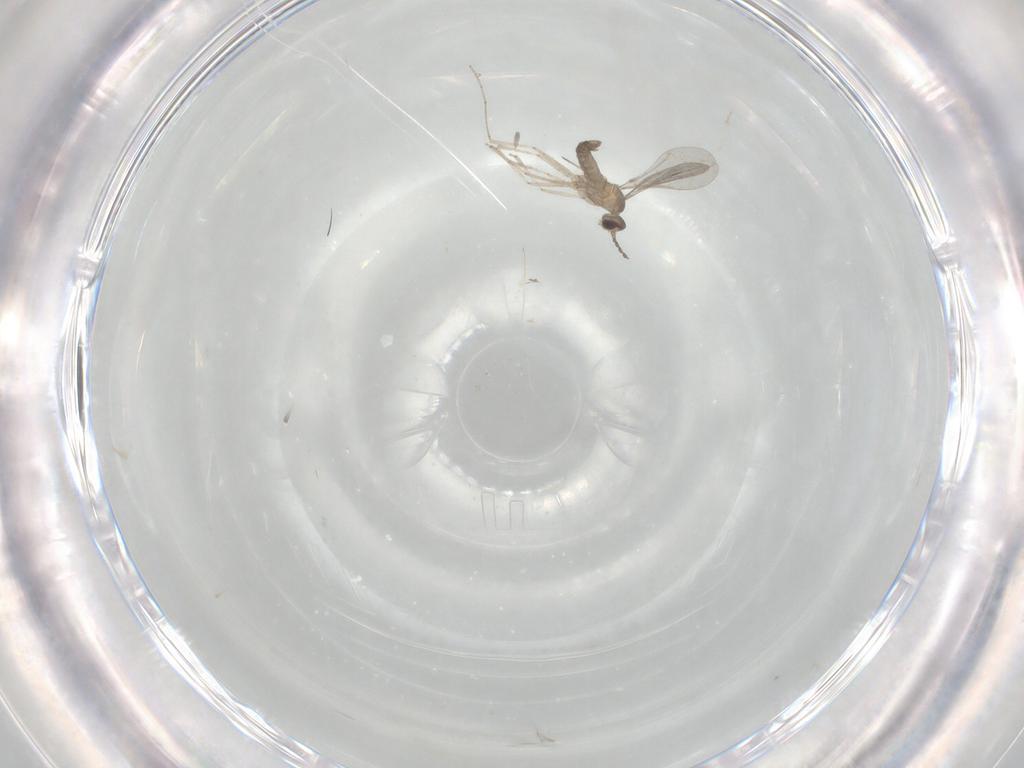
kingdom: Animalia
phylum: Arthropoda
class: Insecta
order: Diptera
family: Cecidomyiidae
